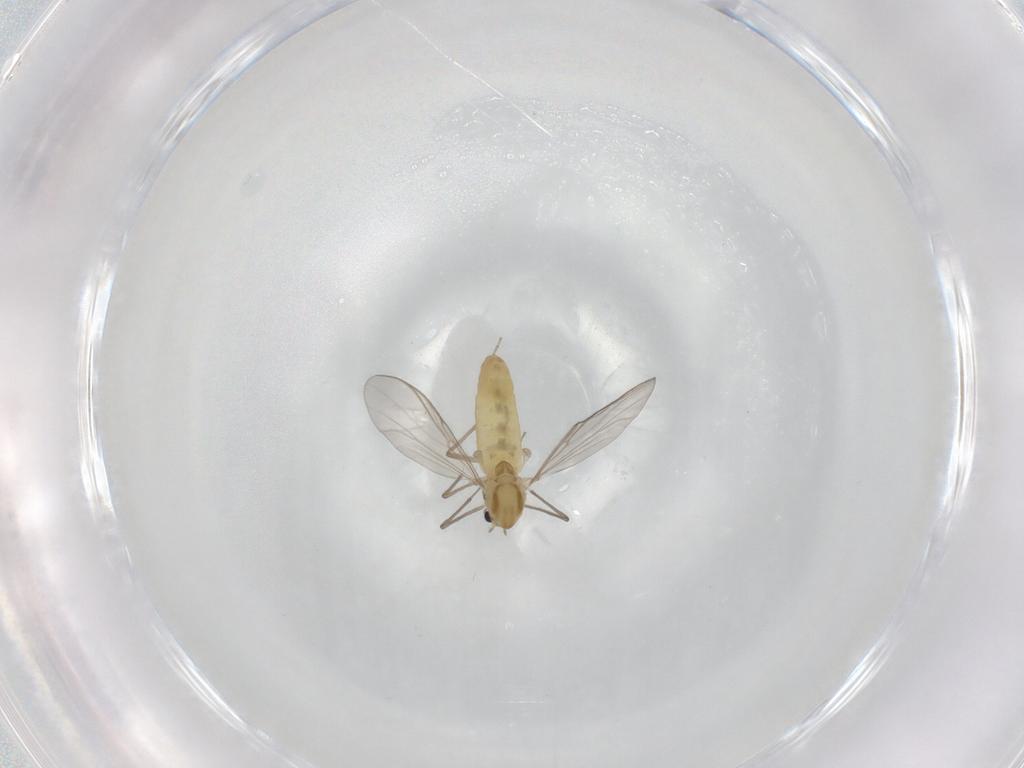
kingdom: Animalia
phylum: Arthropoda
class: Insecta
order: Diptera
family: Chironomidae
